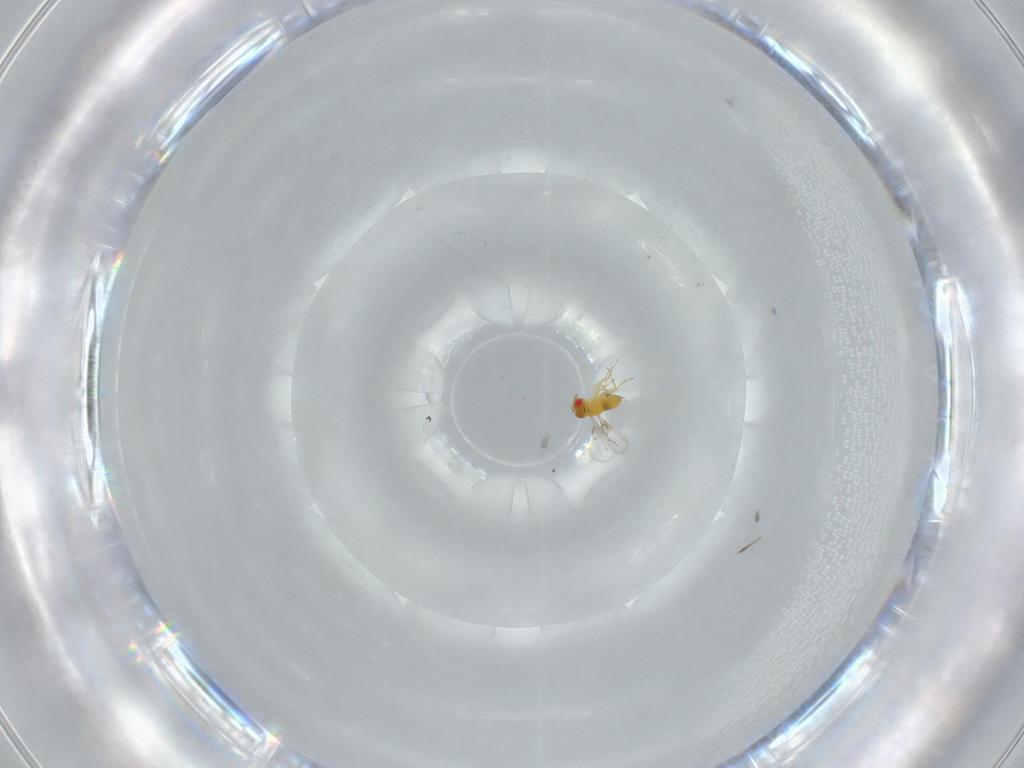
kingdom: Animalia
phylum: Arthropoda
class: Insecta
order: Hymenoptera
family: Trichogrammatidae
